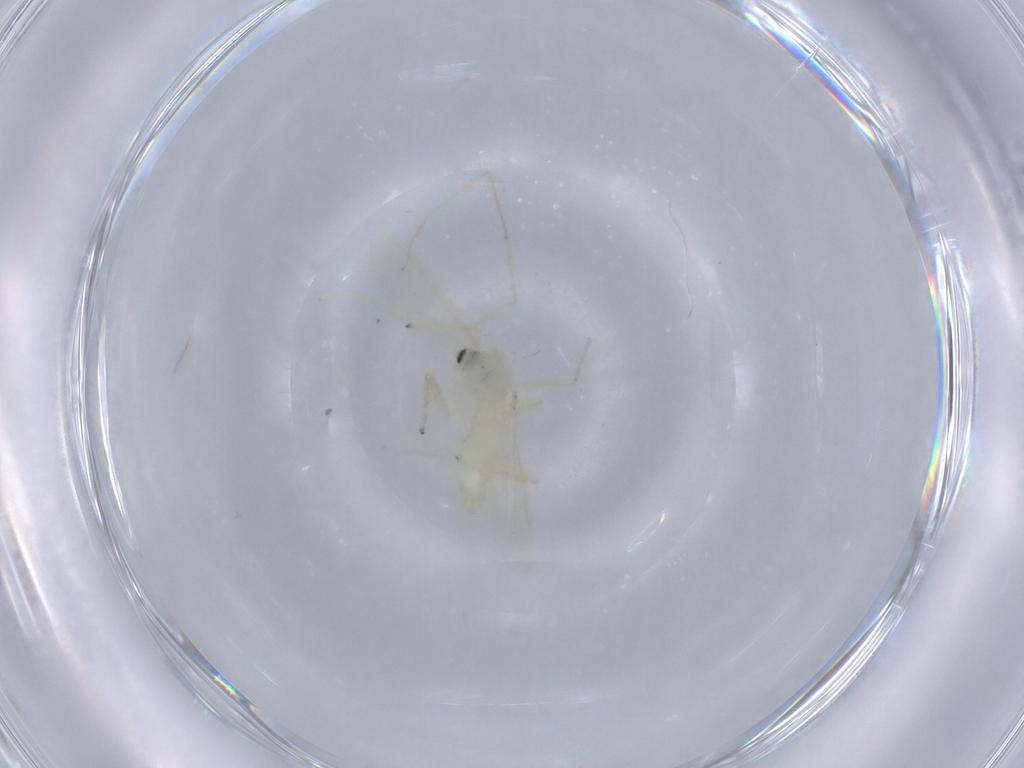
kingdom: Animalia
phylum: Arthropoda
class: Insecta
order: Diptera
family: Chironomidae
